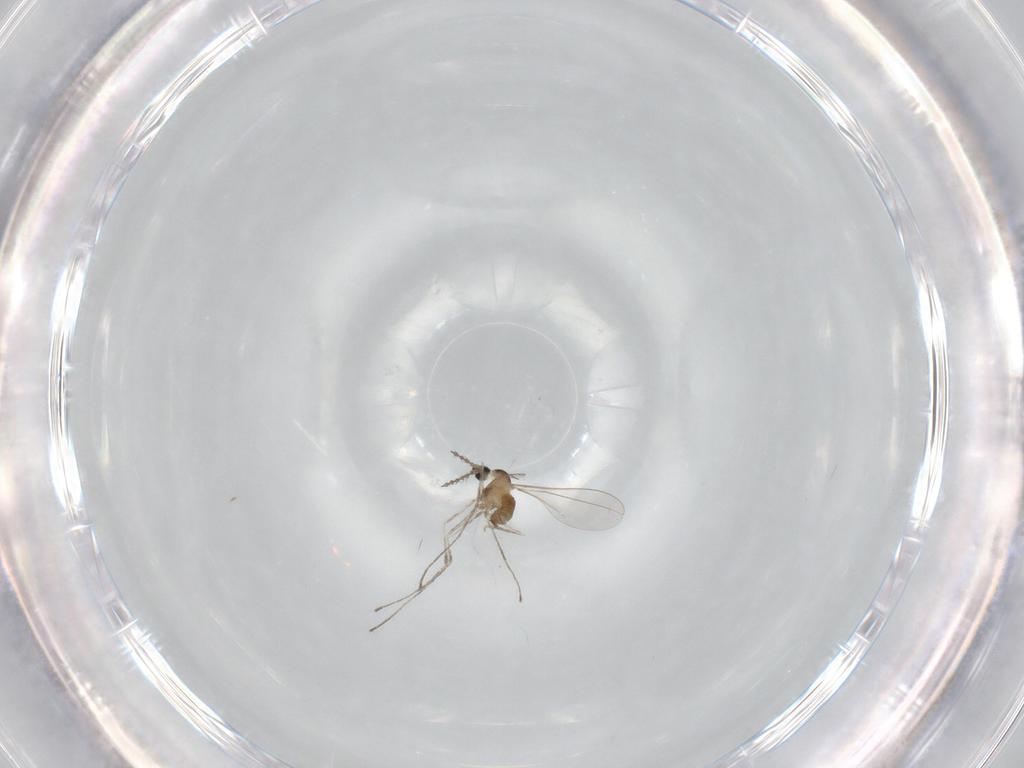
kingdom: Animalia
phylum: Arthropoda
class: Insecta
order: Diptera
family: Cecidomyiidae
